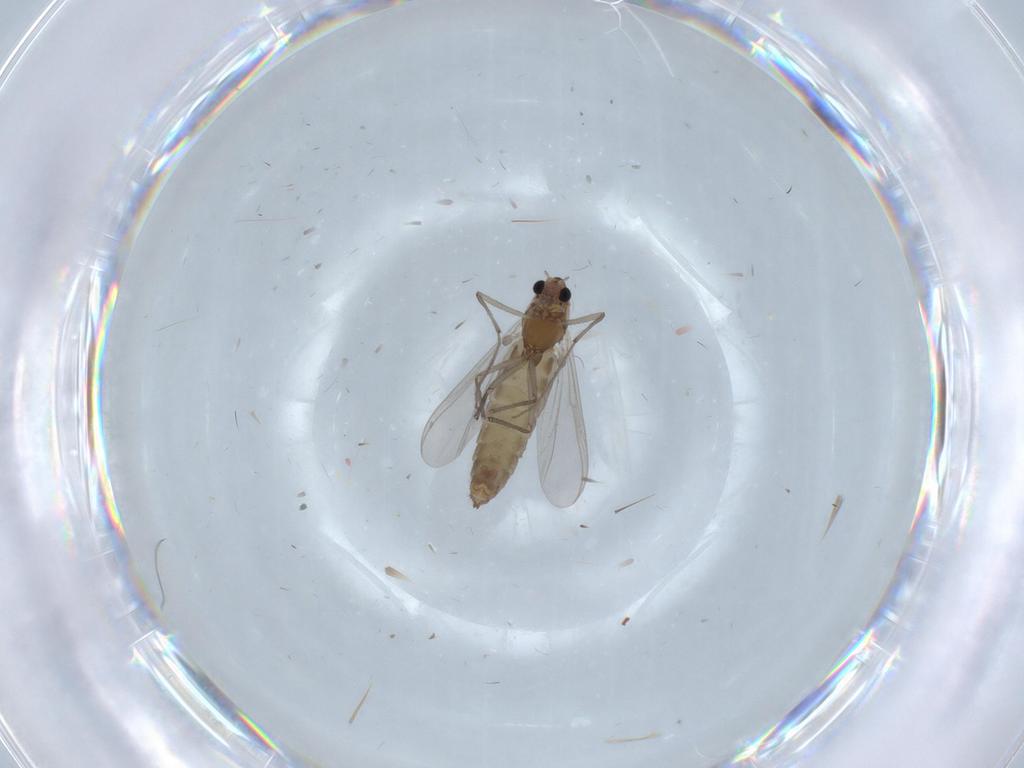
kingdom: Animalia
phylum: Arthropoda
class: Insecta
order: Diptera
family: Chironomidae
